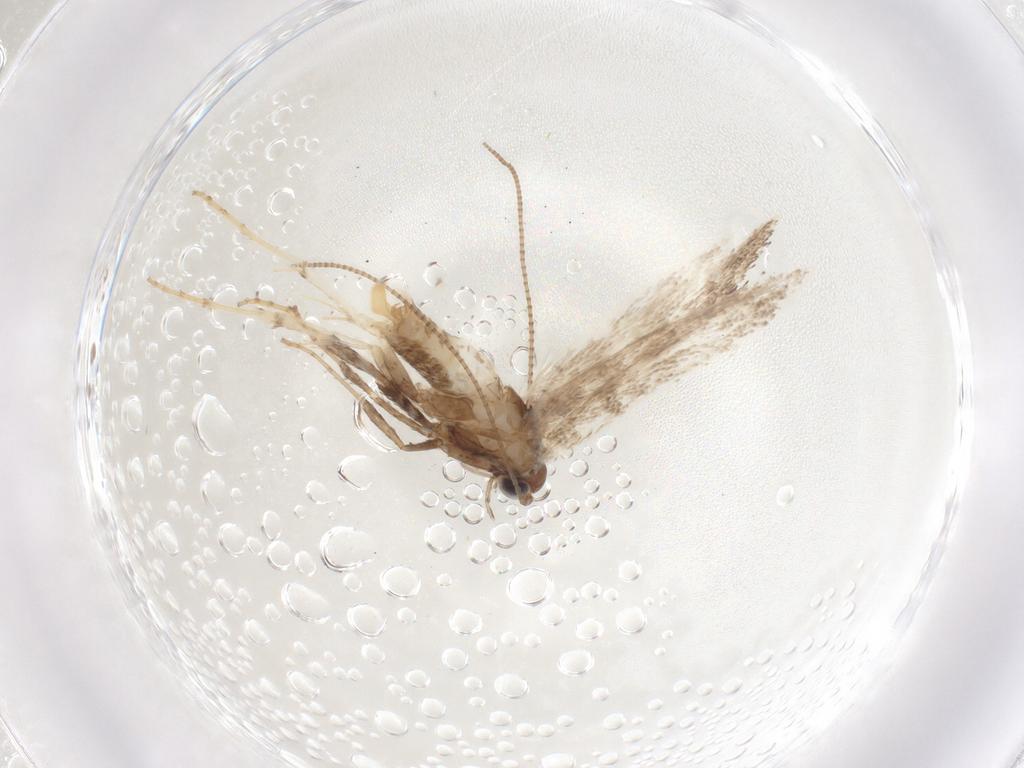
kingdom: Animalia
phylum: Arthropoda
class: Insecta
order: Lepidoptera
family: Gracillariidae
